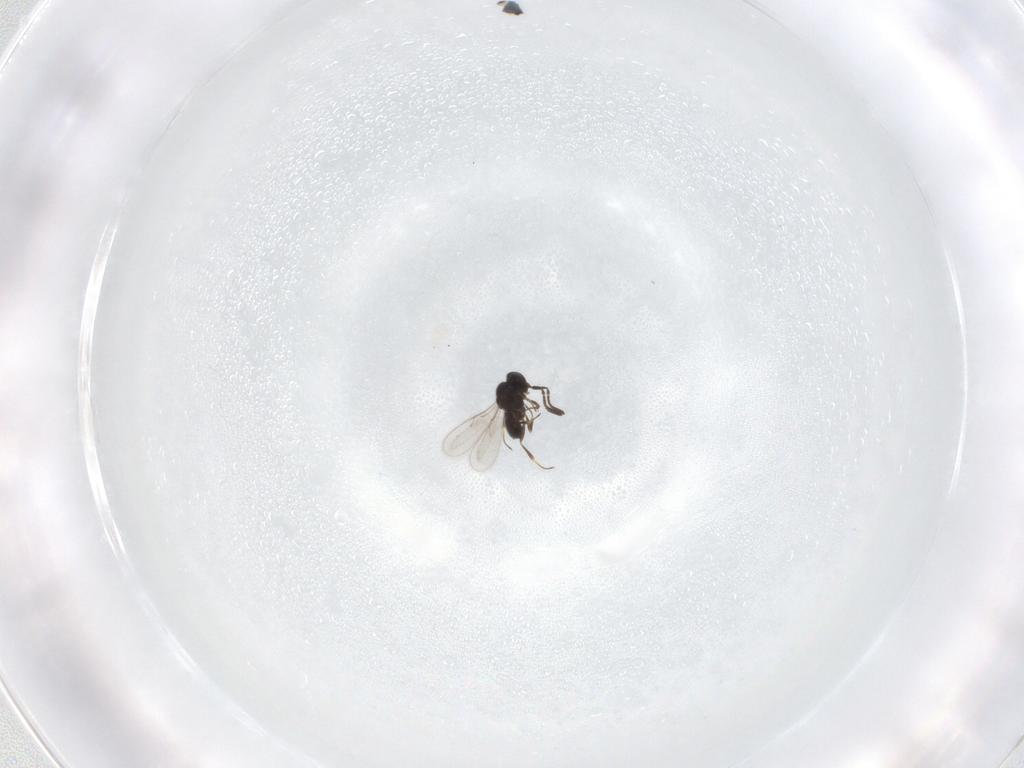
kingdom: Animalia
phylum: Arthropoda
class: Insecta
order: Hymenoptera
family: Scelionidae
